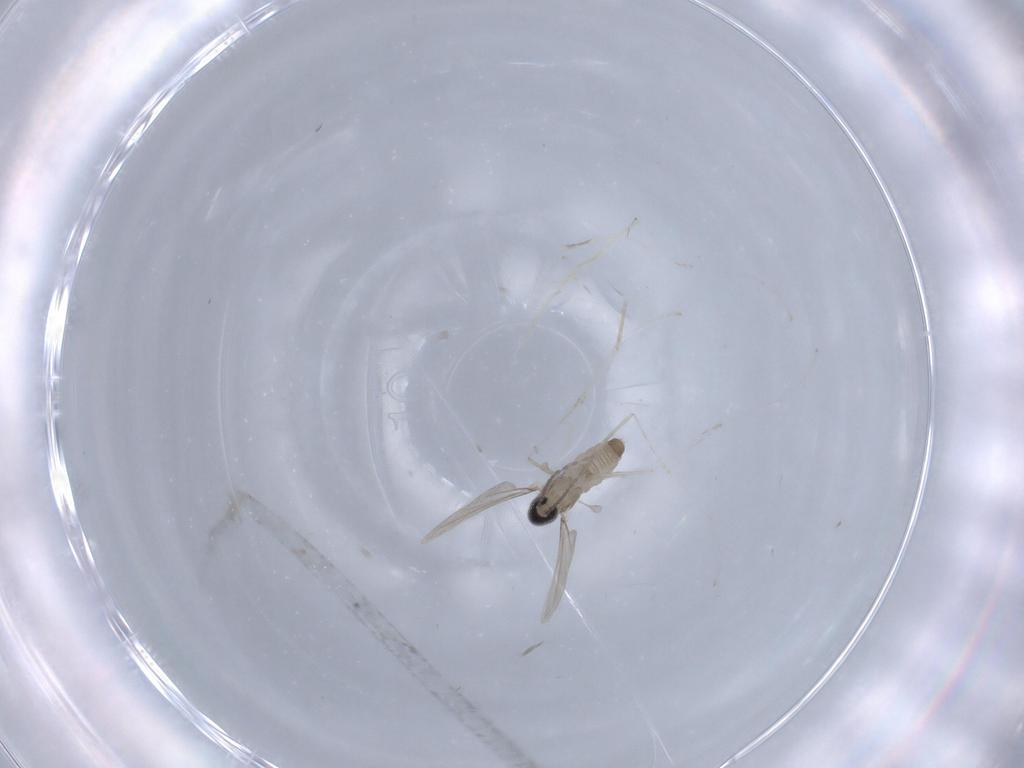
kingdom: Animalia
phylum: Arthropoda
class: Insecta
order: Diptera
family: Cecidomyiidae
